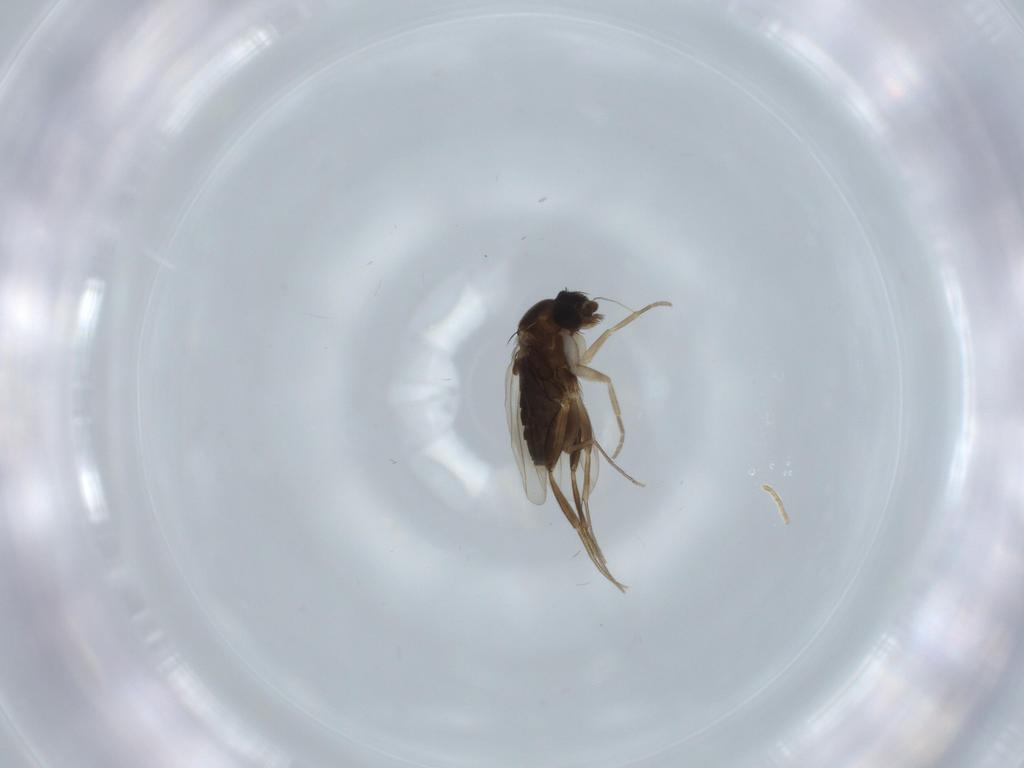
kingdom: Animalia
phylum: Arthropoda
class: Insecta
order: Diptera
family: Phoridae
